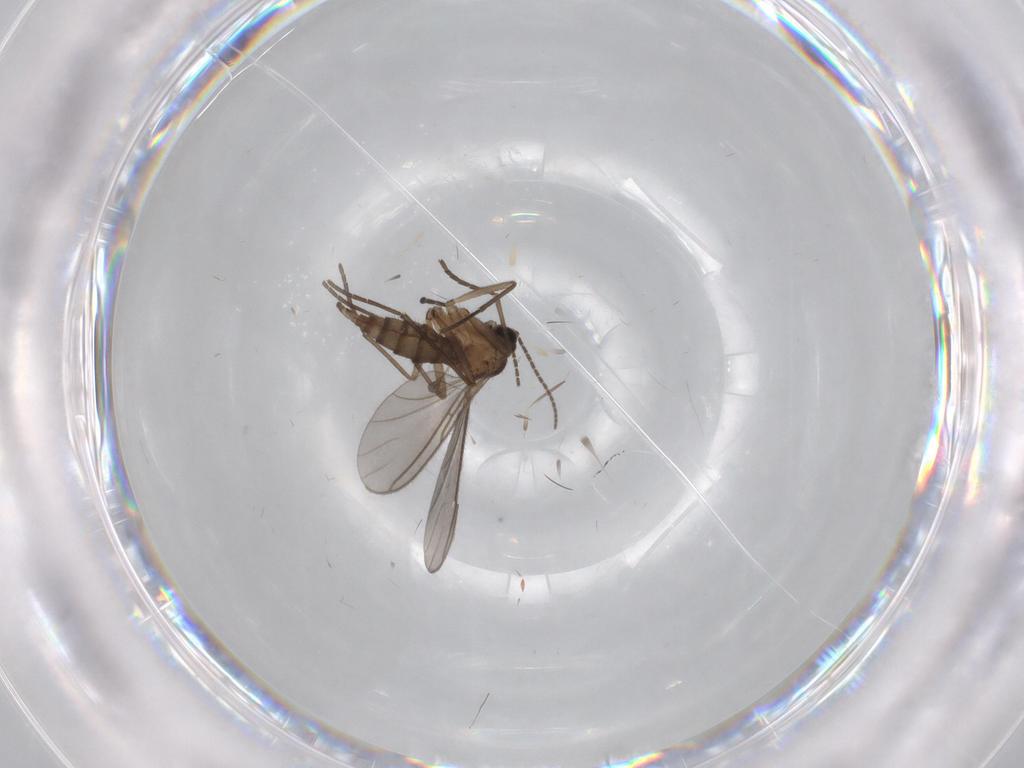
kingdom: Animalia
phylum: Arthropoda
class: Insecta
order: Diptera
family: Sciaridae
